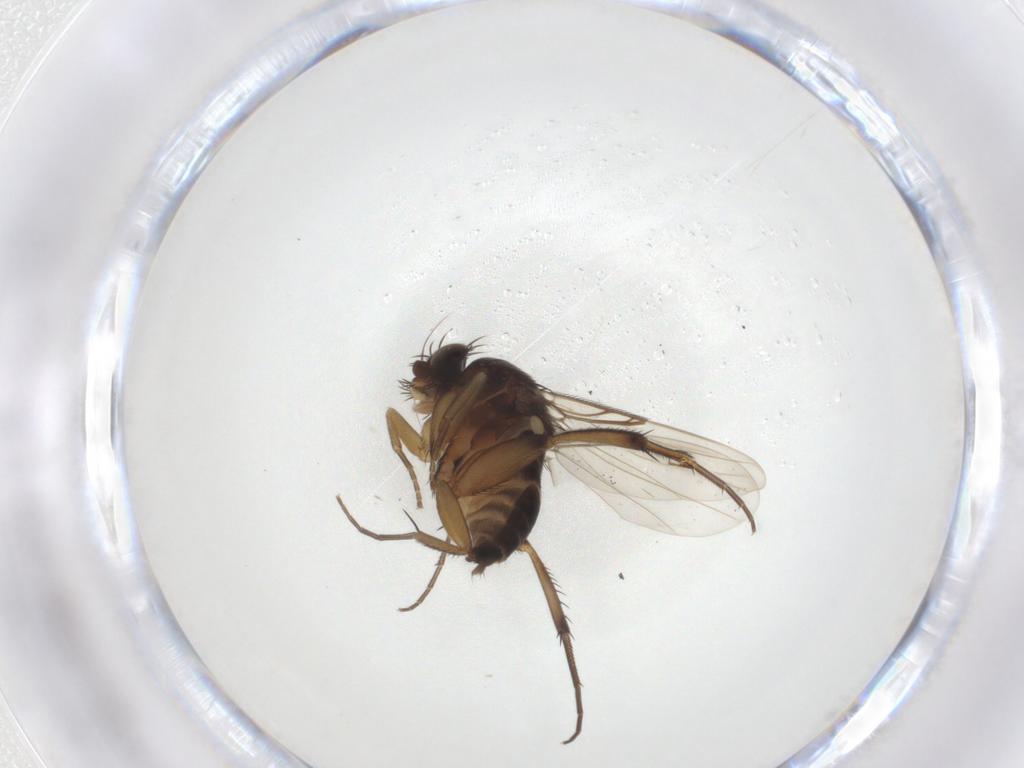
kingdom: Animalia
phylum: Arthropoda
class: Insecta
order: Diptera
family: Phoridae
